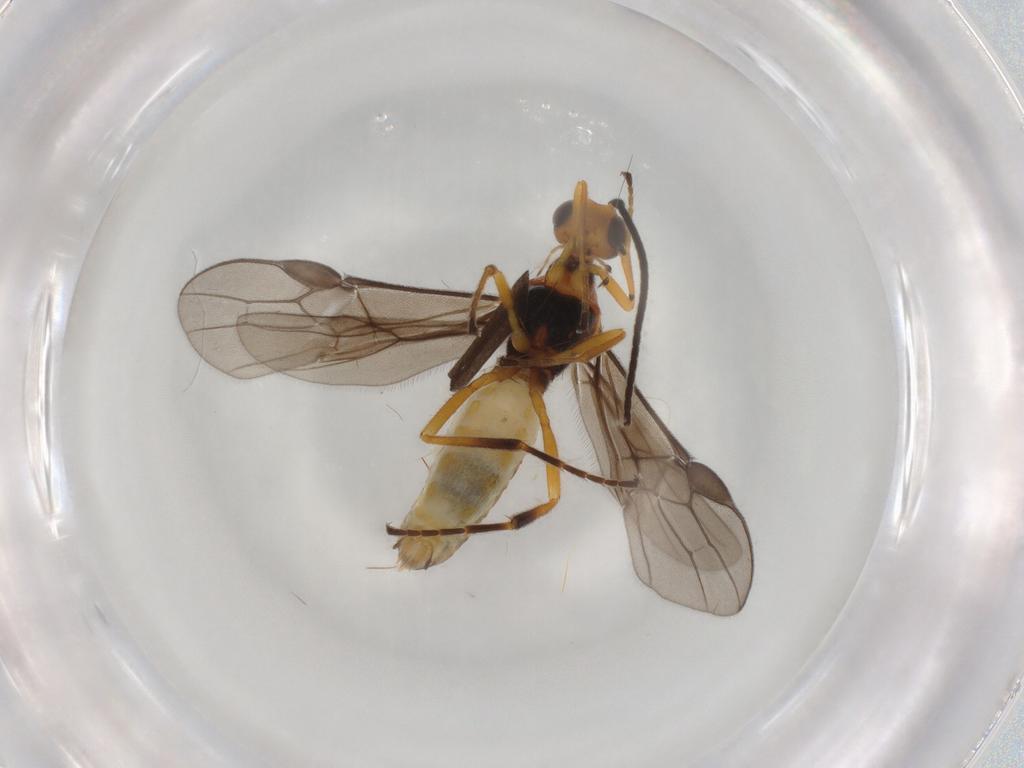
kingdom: Animalia
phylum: Arthropoda
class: Insecta
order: Hymenoptera
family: Braconidae
